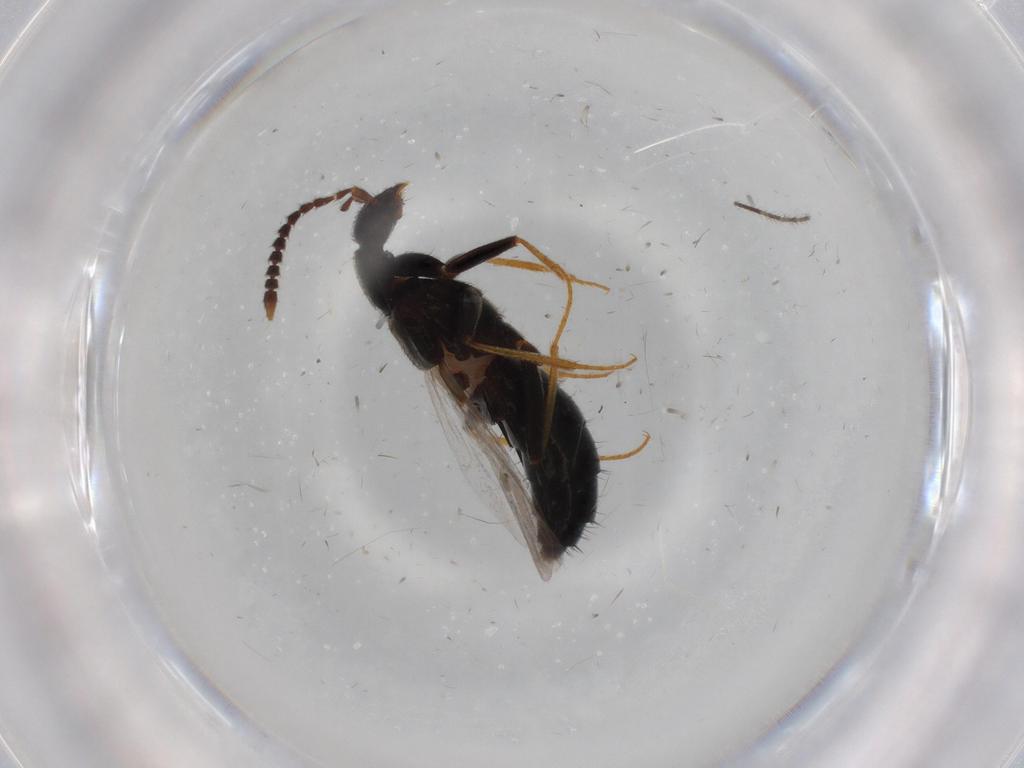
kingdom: Animalia
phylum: Arthropoda
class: Insecta
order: Coleoptera
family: Staphylinidae
